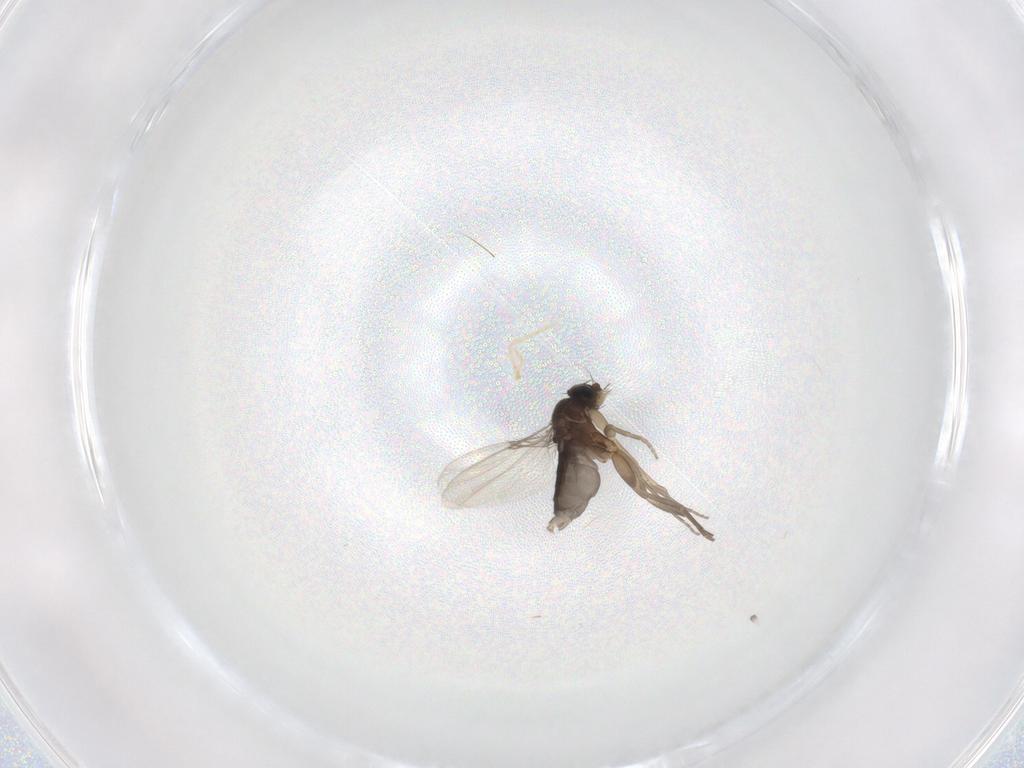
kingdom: Animalia
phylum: Arthropoda
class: Insecta
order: Diptera
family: Phoridae
